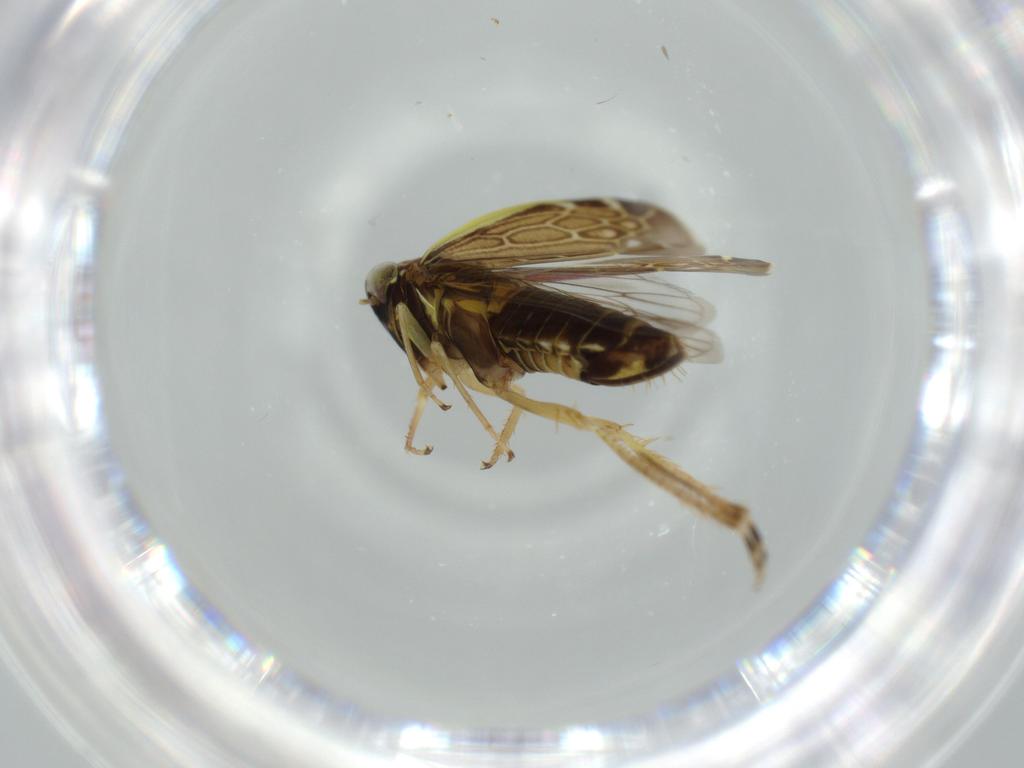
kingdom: Animalia
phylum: Arthropoda
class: Insecta
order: Hemiptera
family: Cicadellidae
